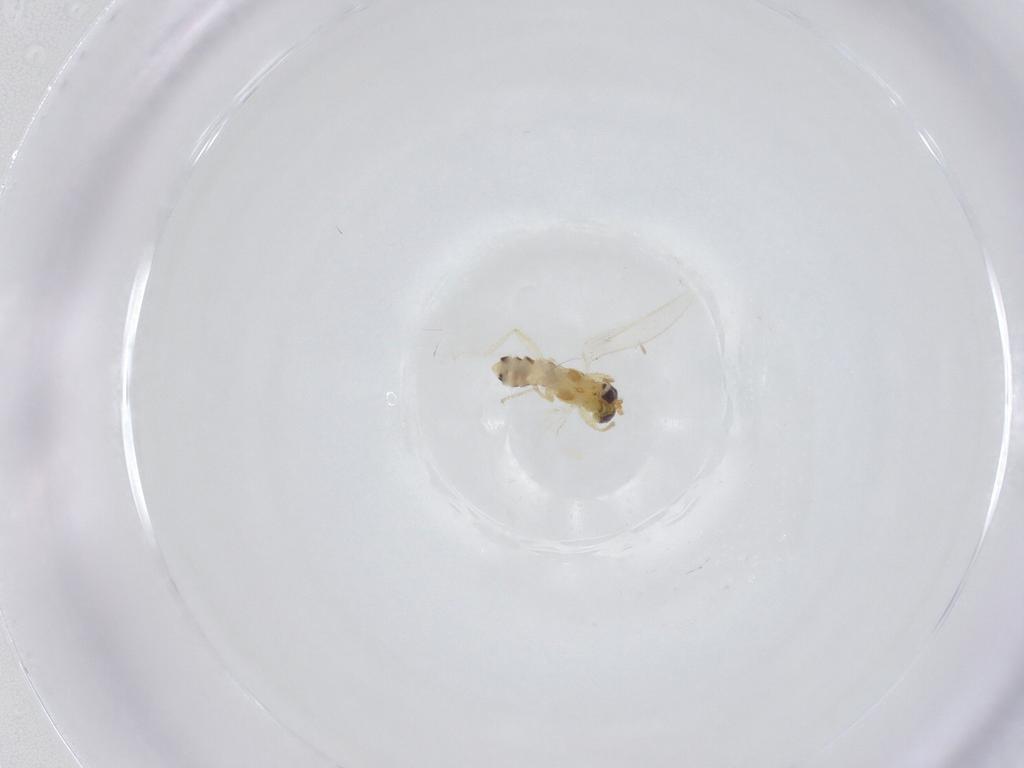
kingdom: Animalia
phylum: Arthropoda
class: Insecta
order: Diptera
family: Periscelididae
